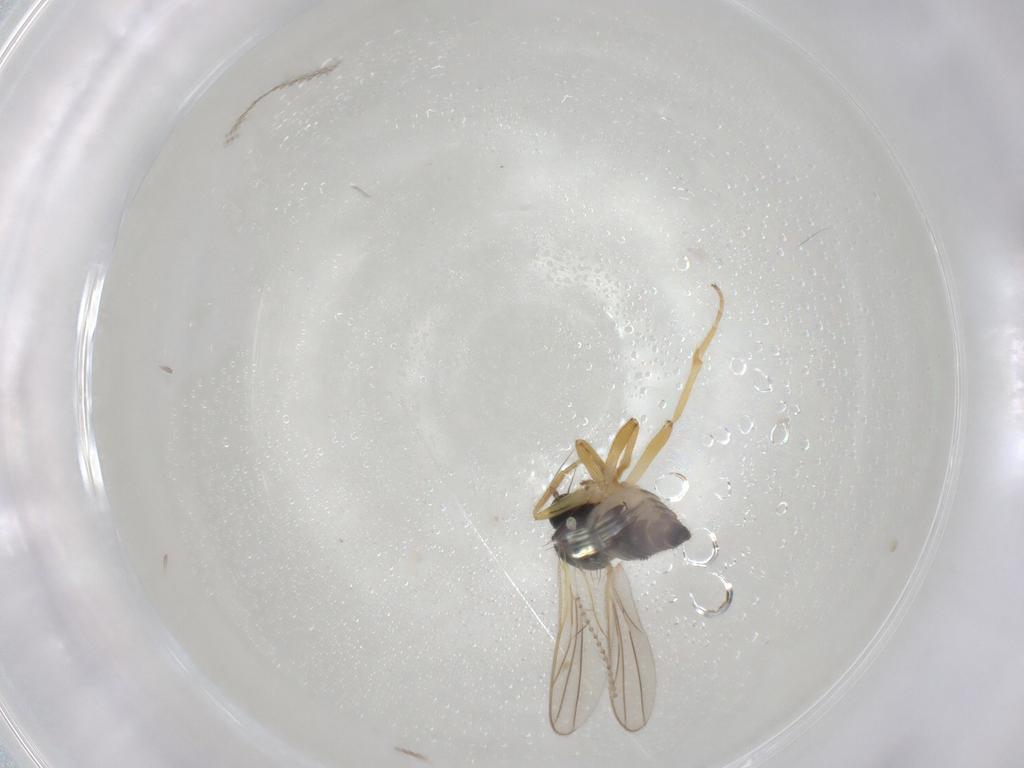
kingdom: Animalia
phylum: Arthropoda
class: Insecta
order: Diptera
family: Hybotidae
